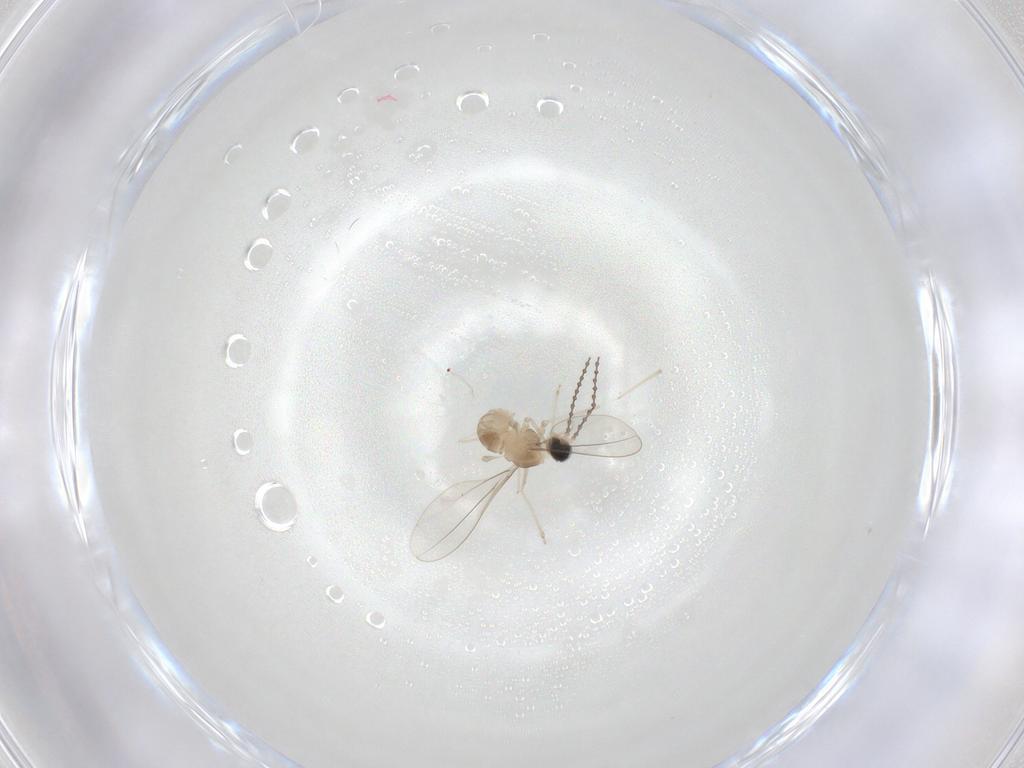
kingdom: Animalia
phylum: Arthropoda
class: Insecta
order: Diptera
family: Cecidomyiidae
